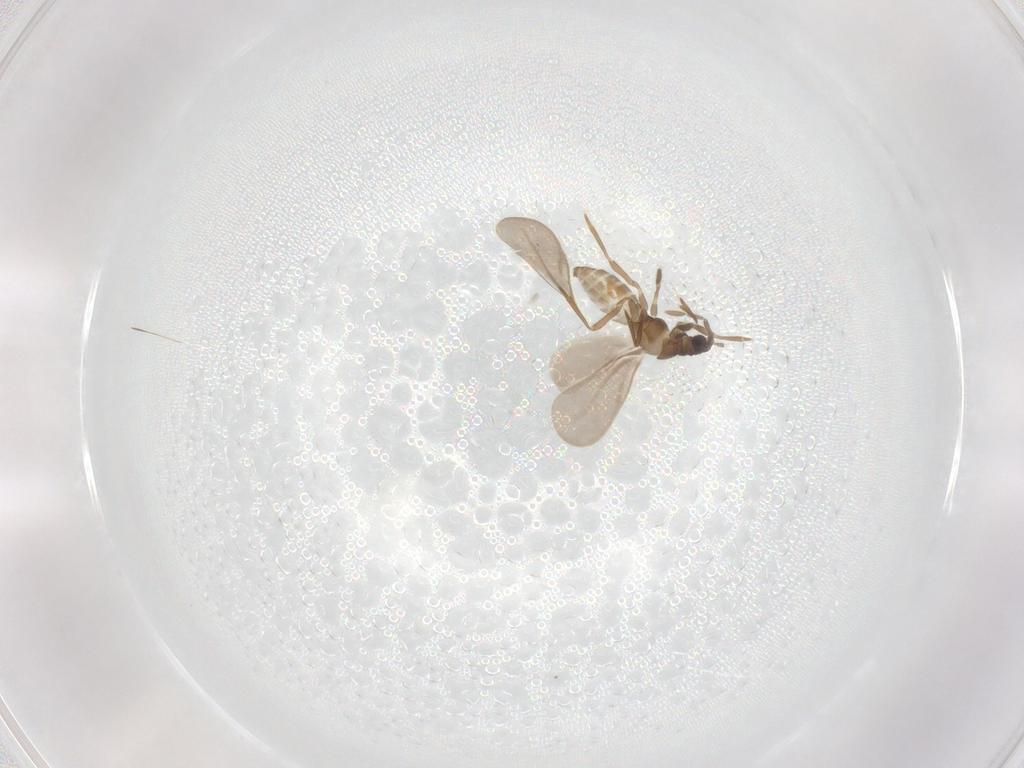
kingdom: Animalia
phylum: Arthropoda
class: Insecta
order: Hemiptera
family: Enicocephalidae
